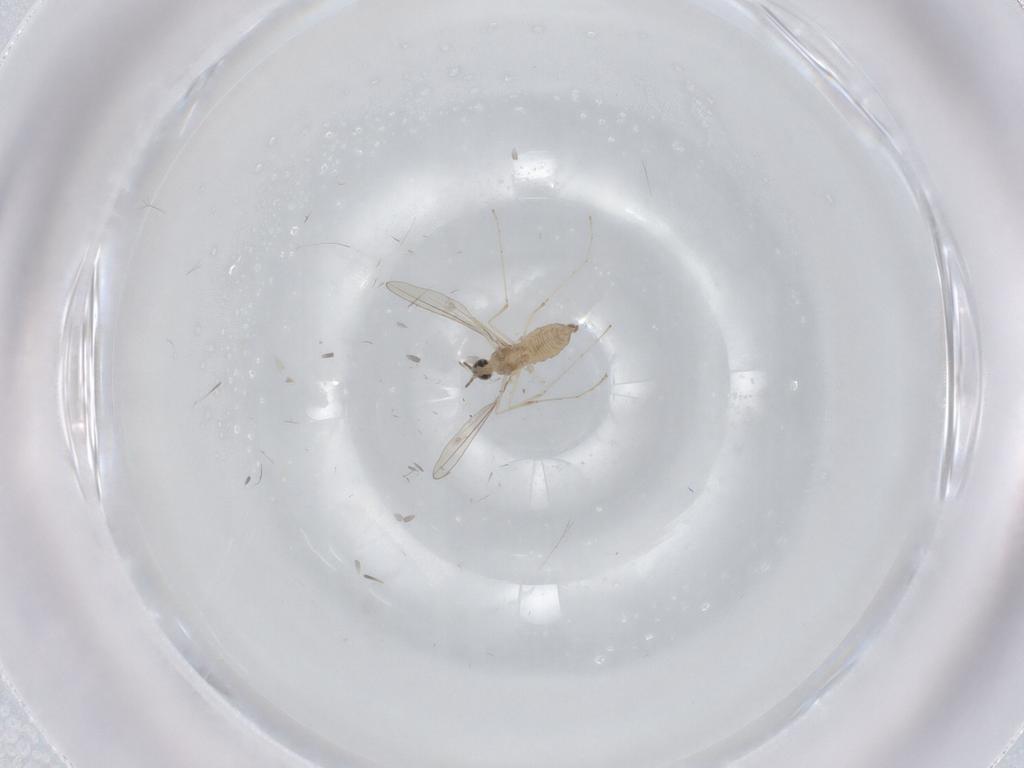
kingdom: Animalia
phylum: Arthropoda
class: Insecta
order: Diptera
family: Cecidomyiidae
